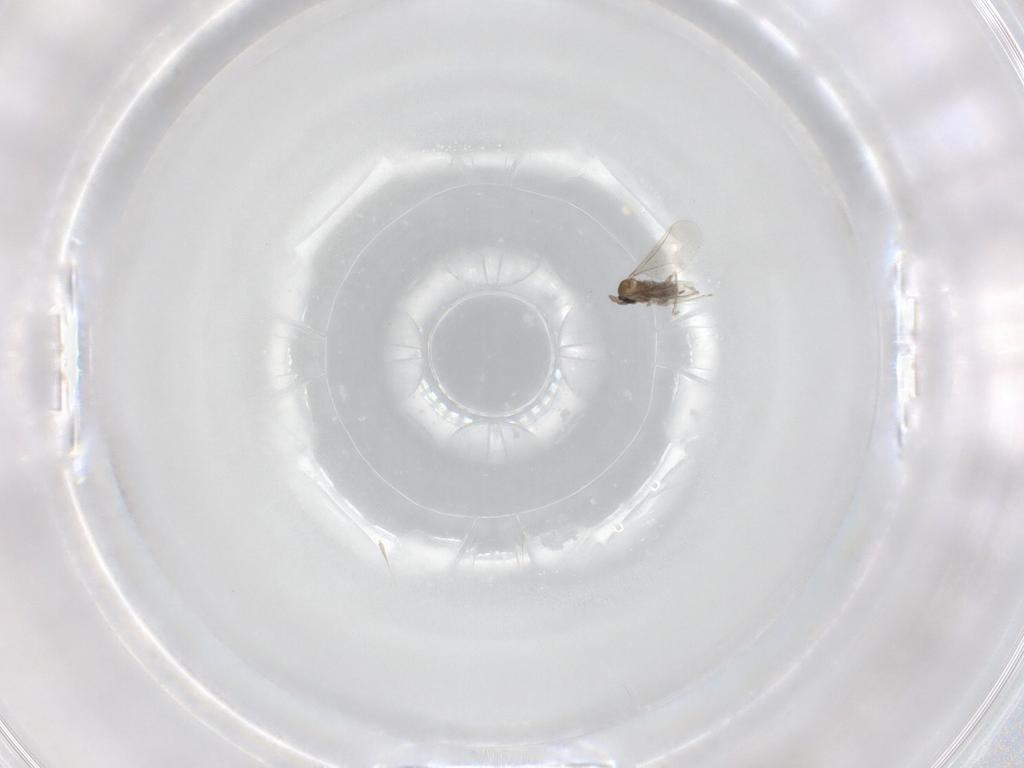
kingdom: Animalia
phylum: Arthropoda
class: Insecta
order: Diptera
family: Cecidomyiidae
